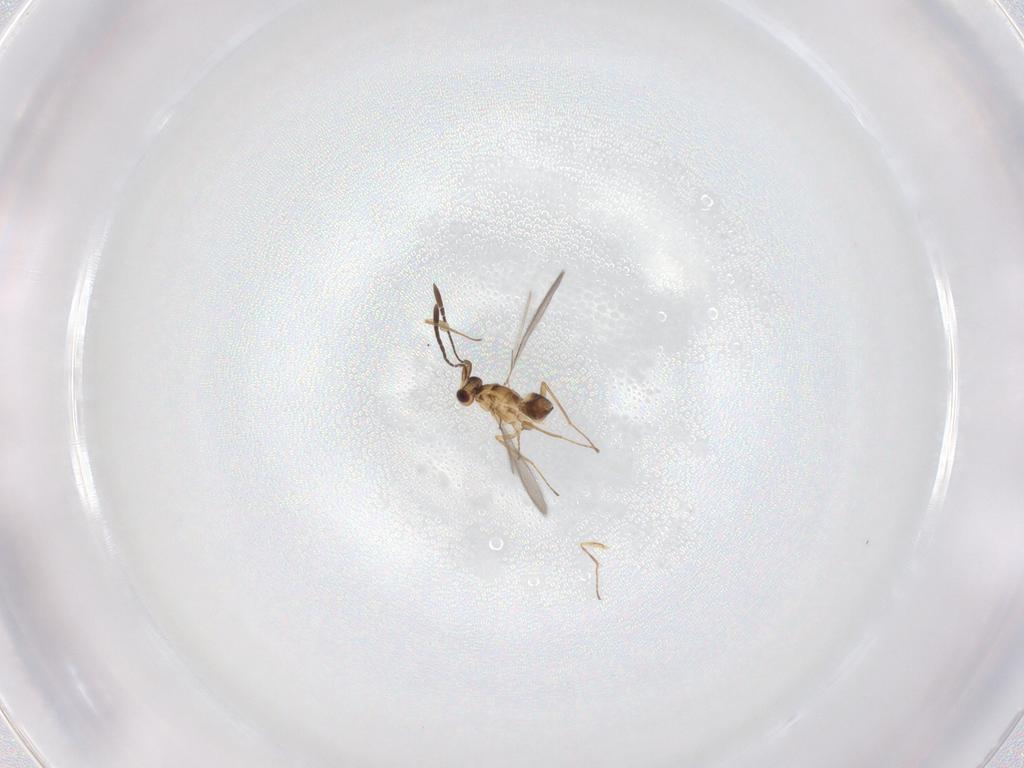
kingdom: Animalia
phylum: Arthropoda
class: Insecta
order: Hymenoptera
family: Mymaridae
